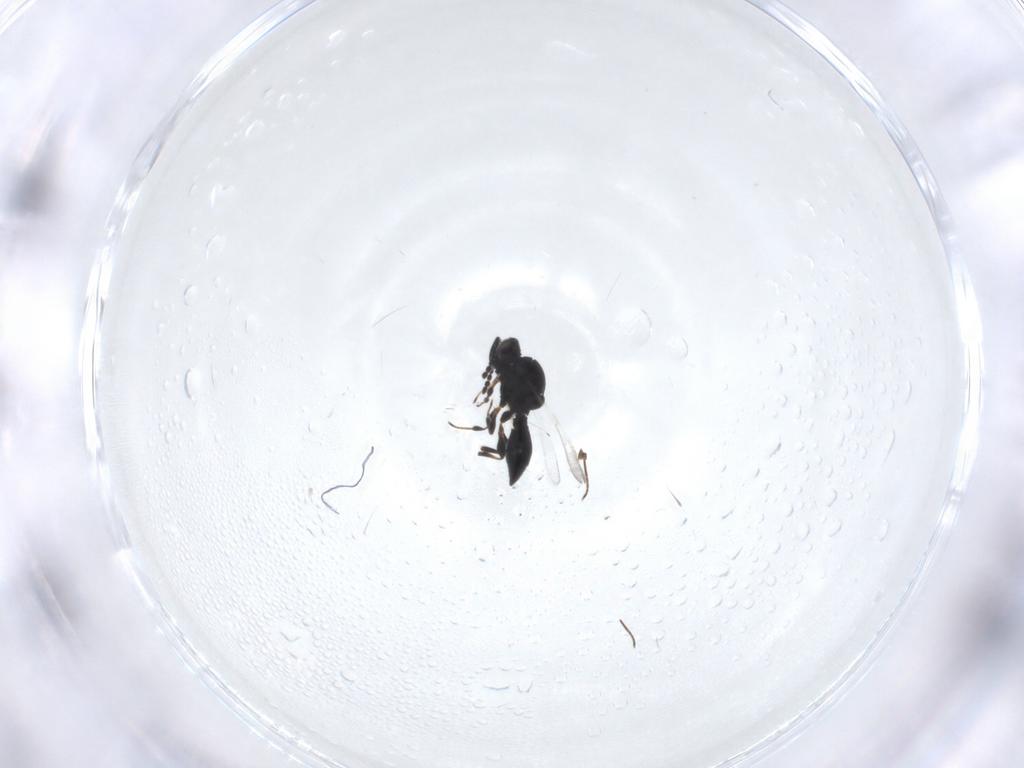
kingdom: Animalia
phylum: Arthropoda
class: Insecta
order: Hymenoptera
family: Platygastridae
